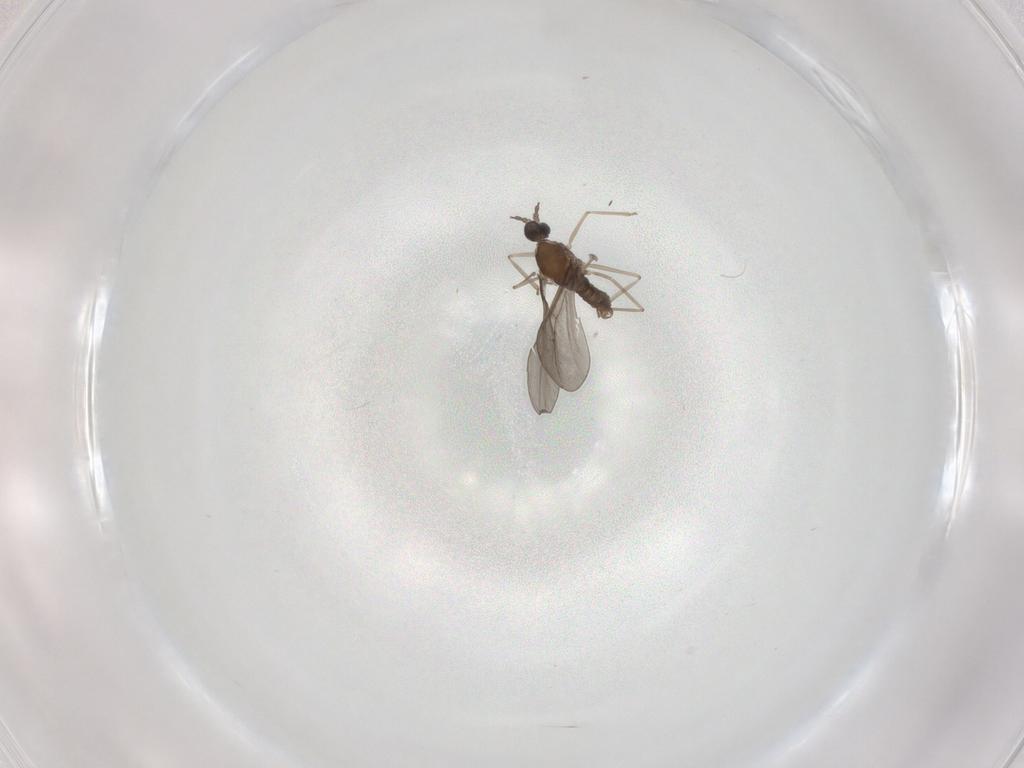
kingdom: Animalia
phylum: Arthropoda
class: Insecta
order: Diptera
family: Cecidomyiidae
